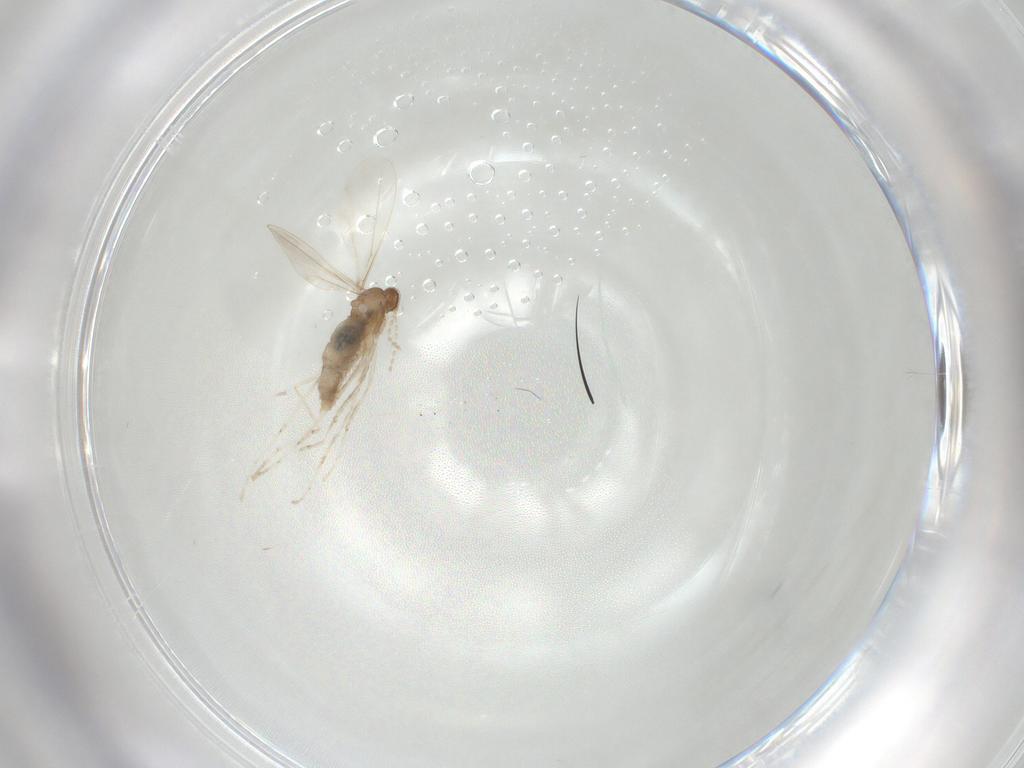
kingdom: Animalia
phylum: Arthropoda
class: Insecta
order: Diptera
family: Cecidomyiidae
